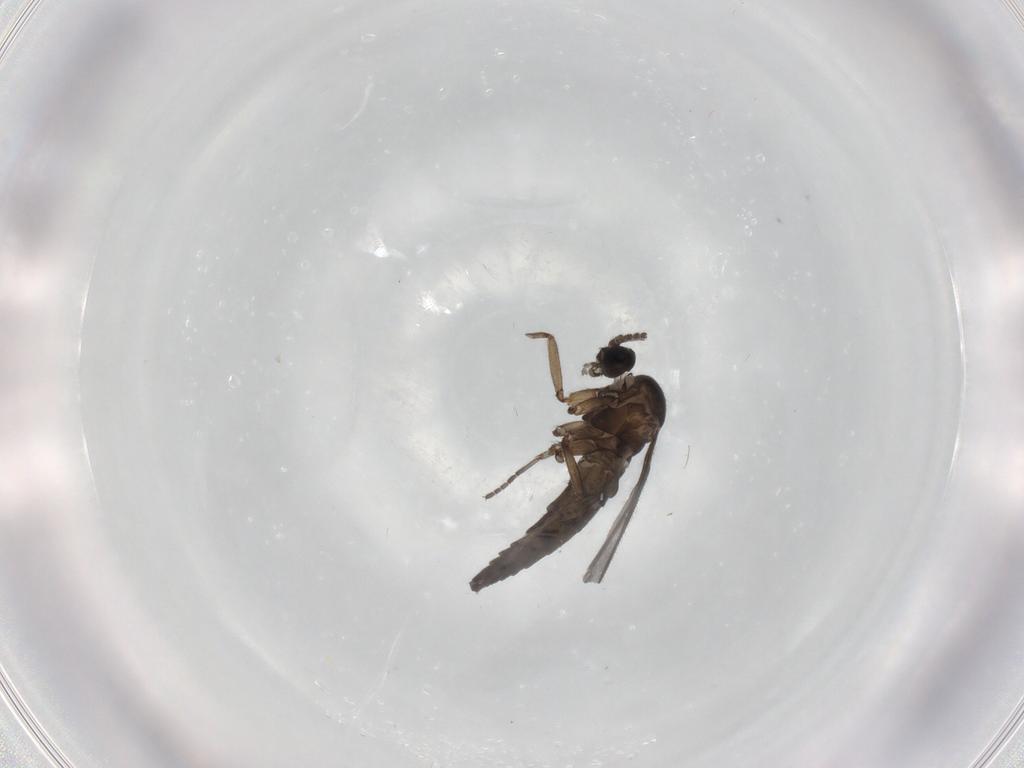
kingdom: Animalia
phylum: Arthropoda
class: Insecta
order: Diptera
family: Sciaridae
